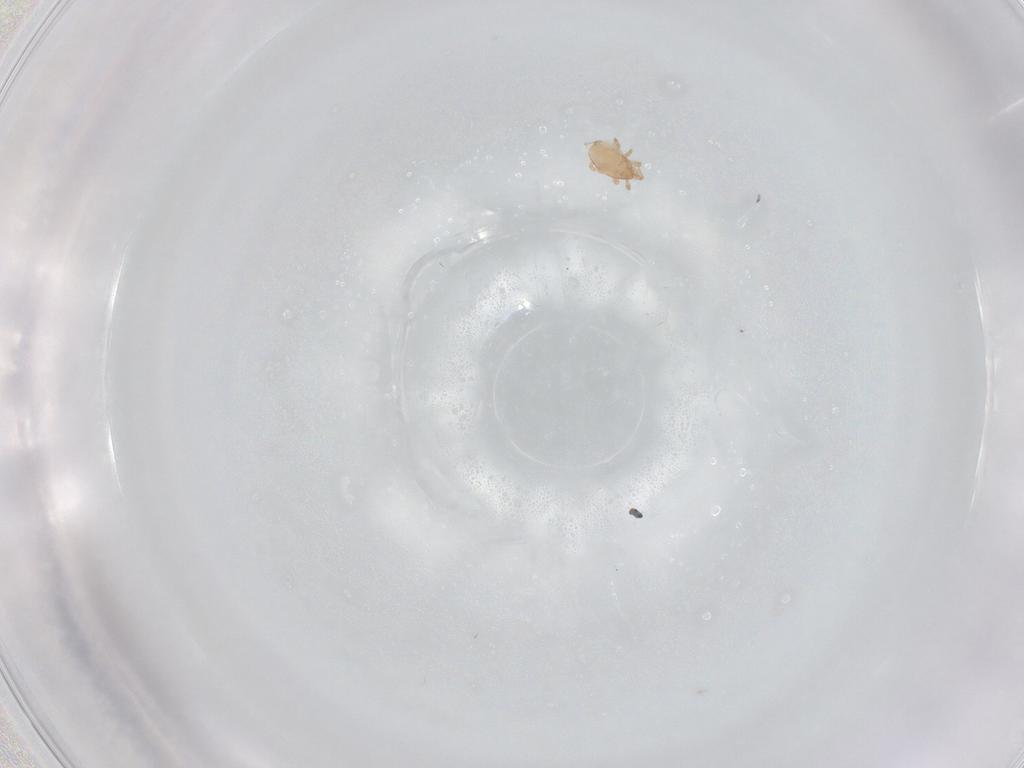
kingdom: Animalia
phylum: Arthropoda
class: Arachnida
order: Mesostigmata
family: Phytoseiidae
